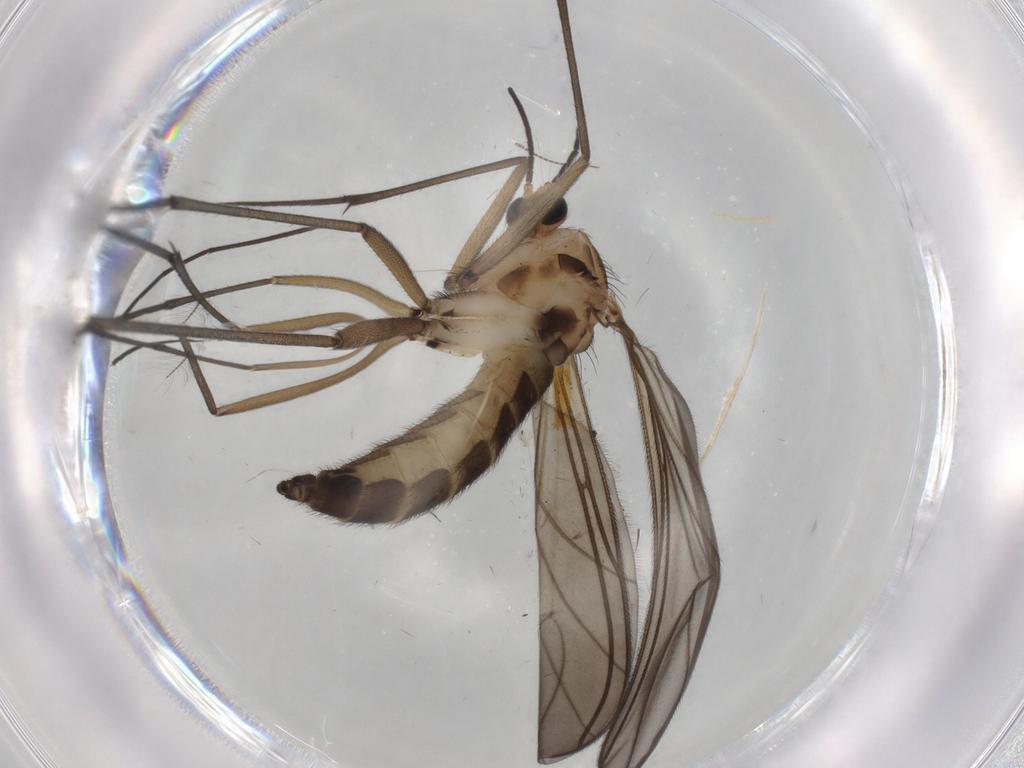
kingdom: Animalia
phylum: Arthropoda
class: Insecta
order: Diptera
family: Sciaridae
